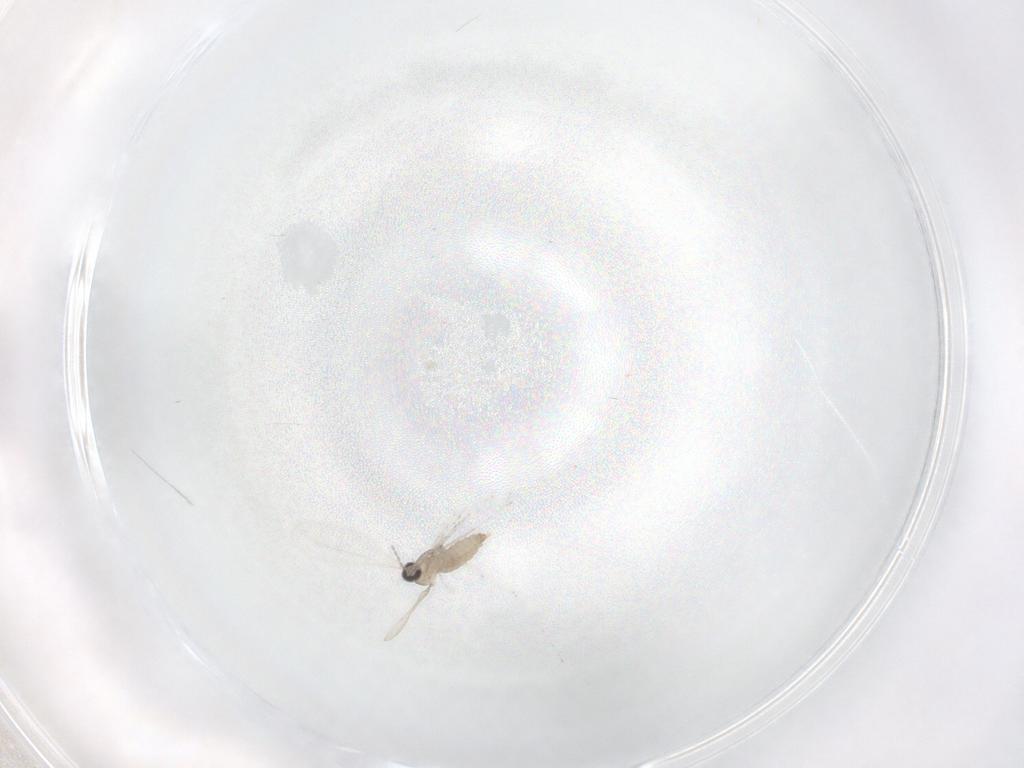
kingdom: Animalia
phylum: Arthropoda
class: Insecta
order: Diptera
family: Cecidomyiidae
